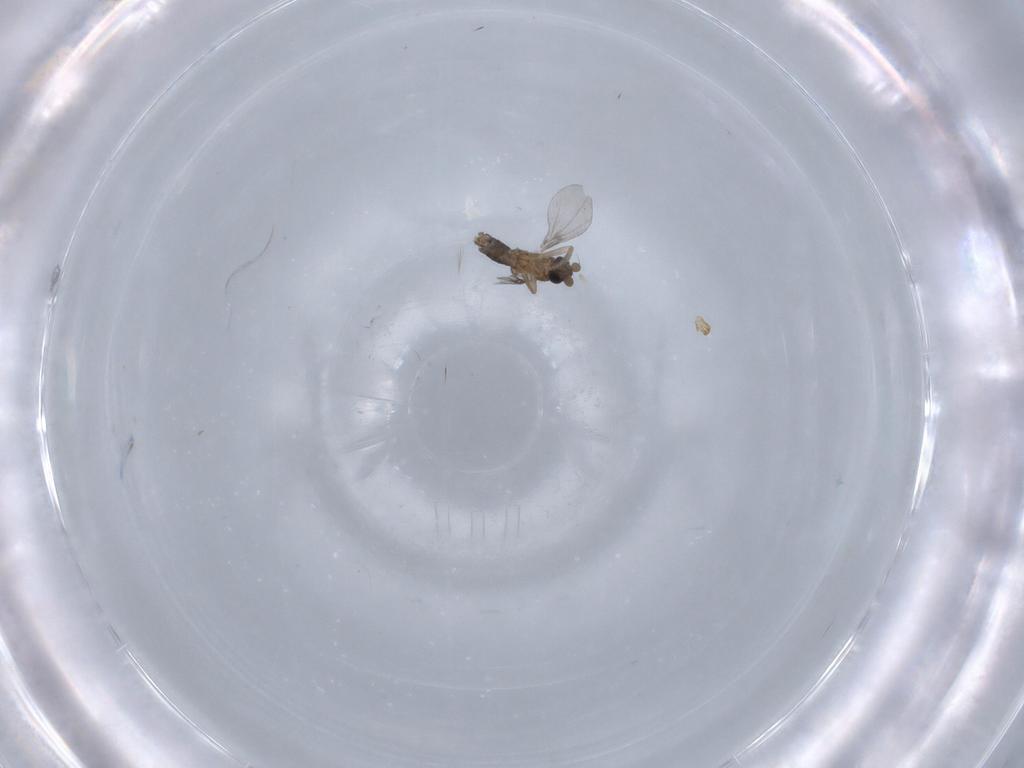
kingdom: Animalia
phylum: Arthropoda
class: Insecta
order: Diptera
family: Phoridae
